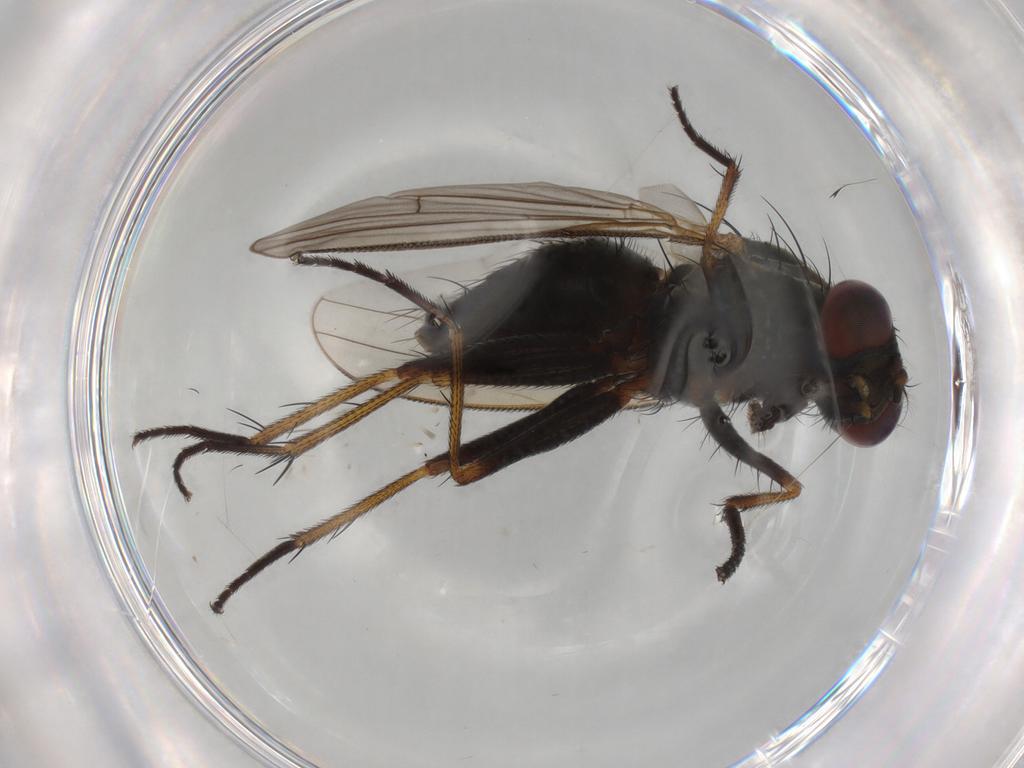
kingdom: Animalia
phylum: Arthropoda
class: Insecta
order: Diptera
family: Muscidae
